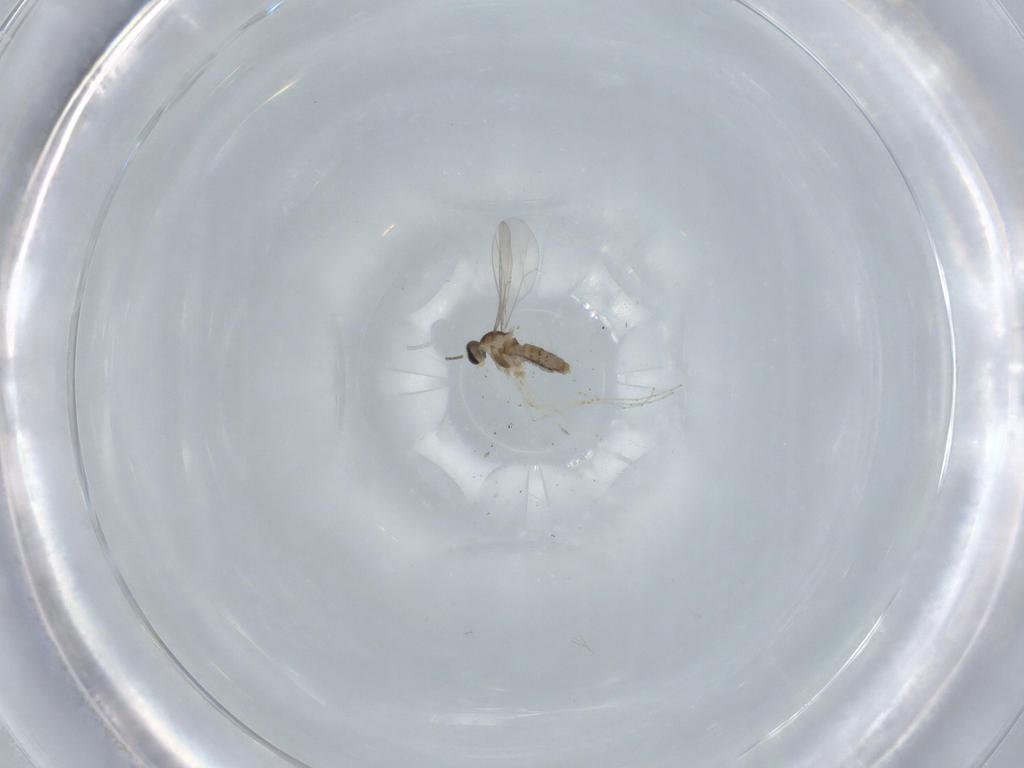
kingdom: Animalia
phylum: Arthropoda
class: Insecta
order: Diptera
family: Cecidomyiidae
